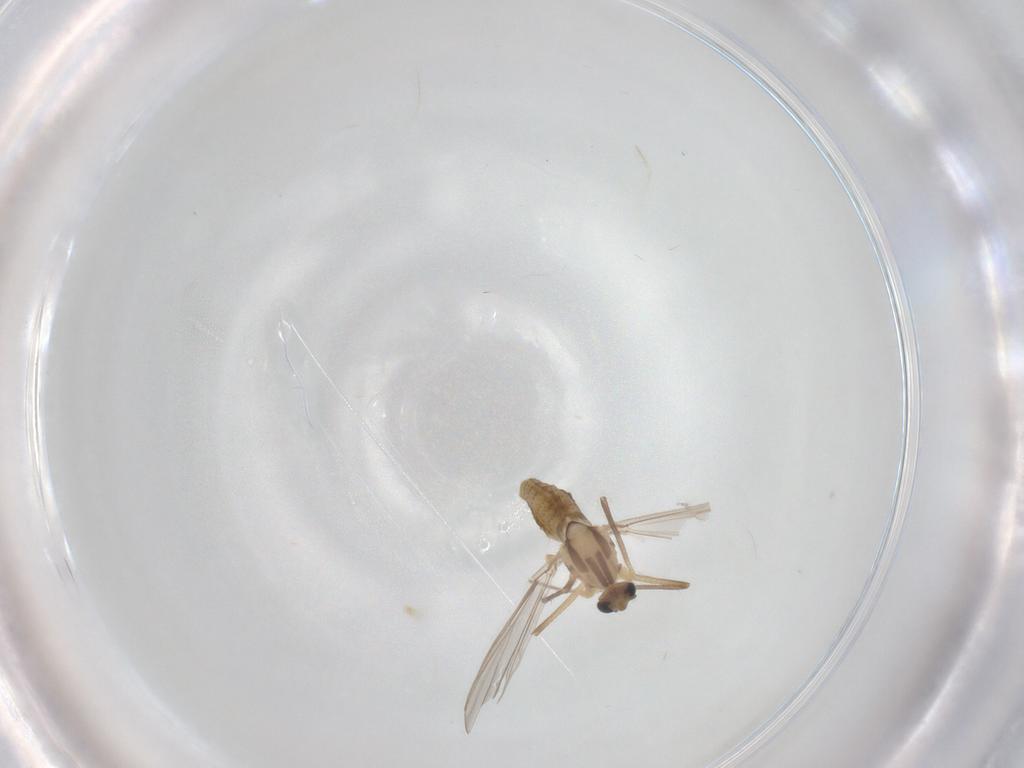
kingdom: Animalia
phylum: Arthropoda
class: Insecta
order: Diptera
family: Chironomidae
